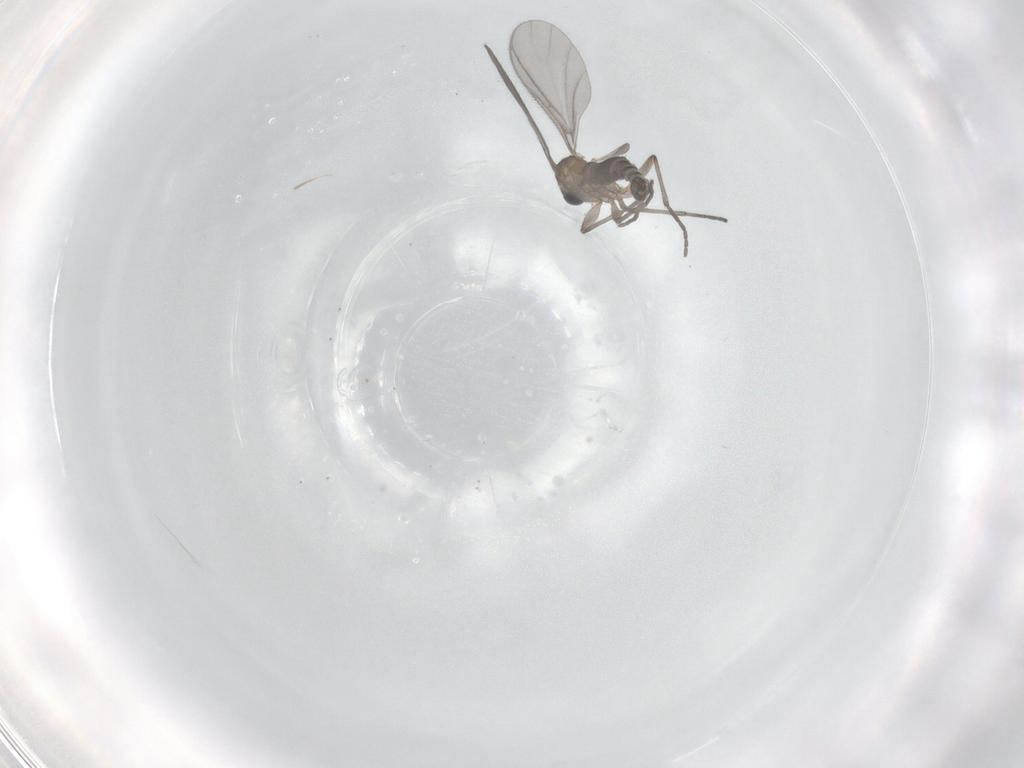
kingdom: Animalia
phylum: Arthropoda
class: Insecta
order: Diptera
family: Sciaridae
